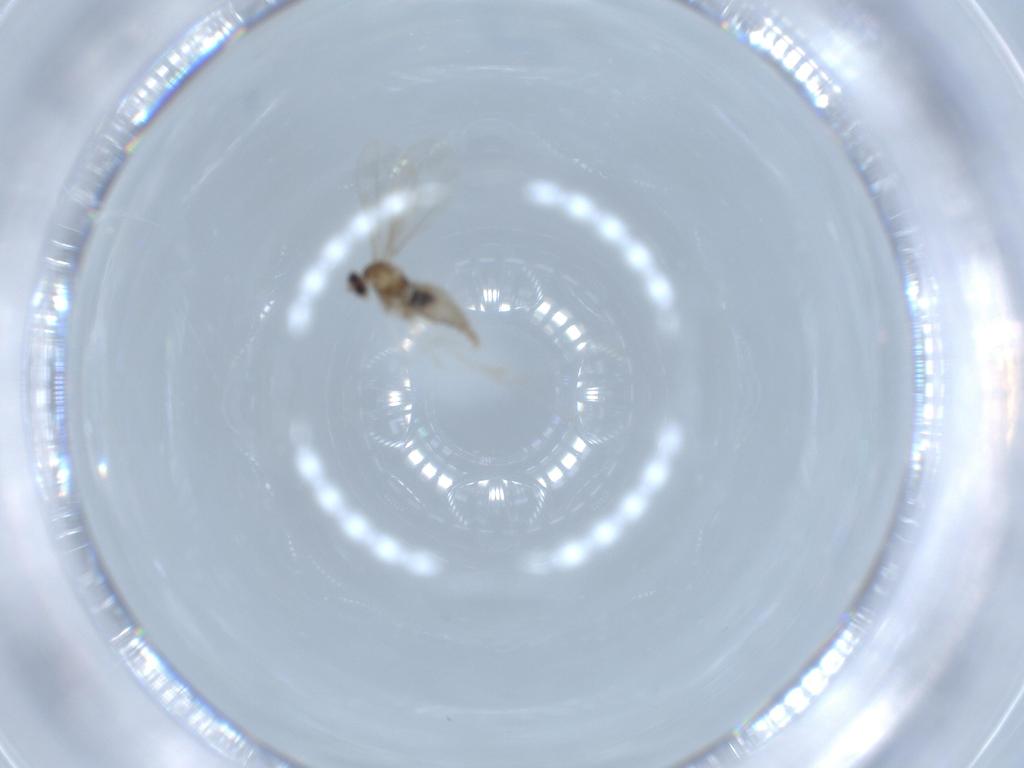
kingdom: Animalia
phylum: Arthropoda
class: Insecta
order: Diptera
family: Cecidomyiidae
